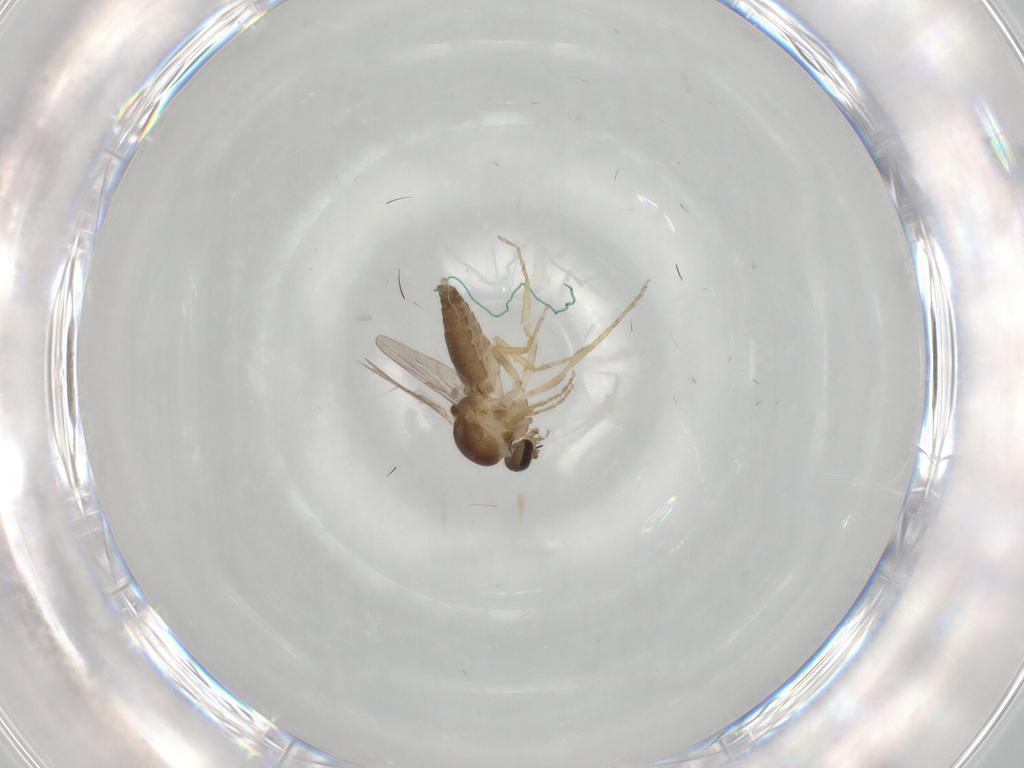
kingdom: Animalia
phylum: Arthropoda
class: Insecta
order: Diptera
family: Ceratopogonidae
